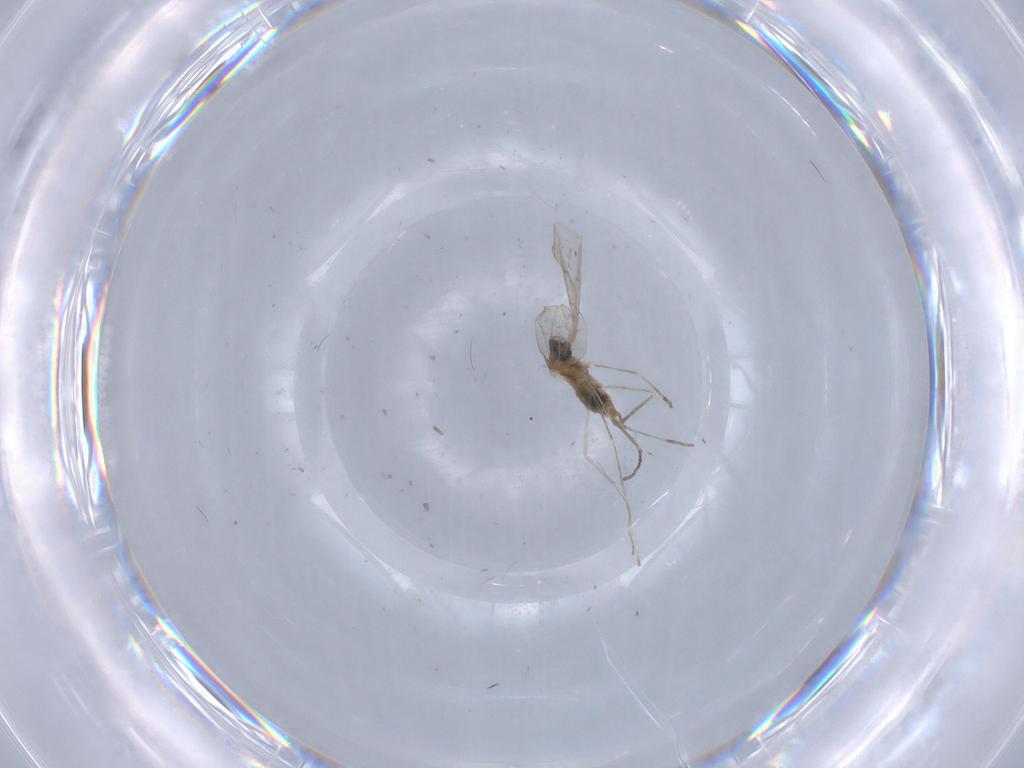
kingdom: Animalia
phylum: Arthropoda
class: Insecta
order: Diptera
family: Cecidomyiidae
